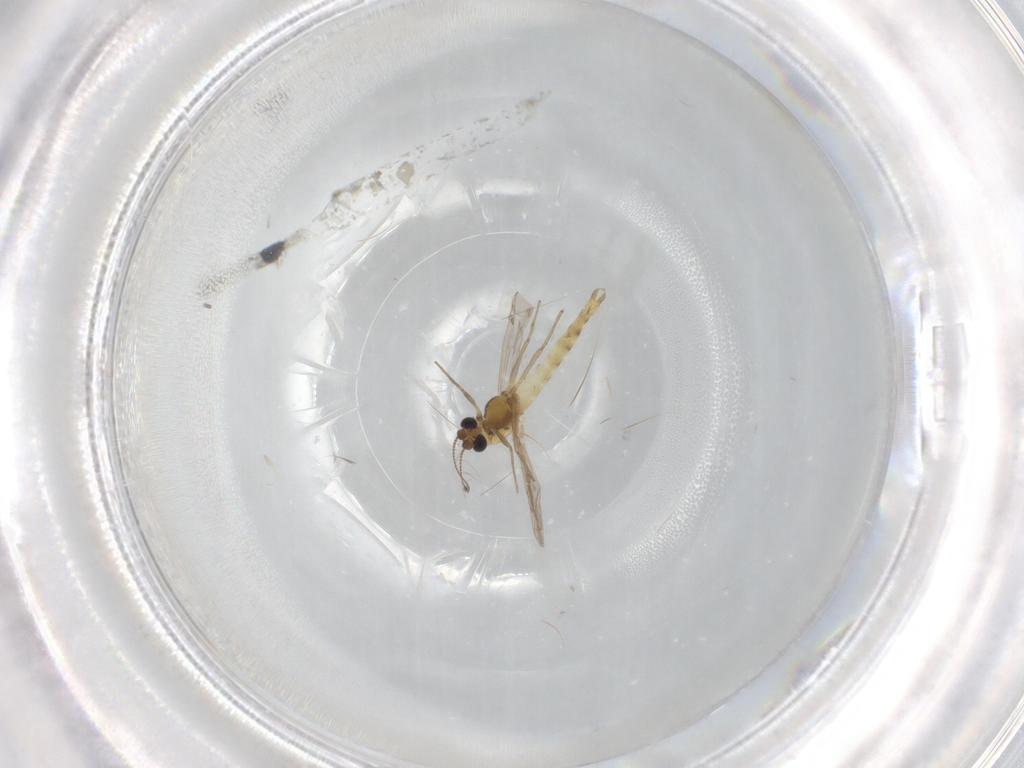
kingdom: Animalia
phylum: Arthropoda
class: Insecta
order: Diptera
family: Chironomidae
